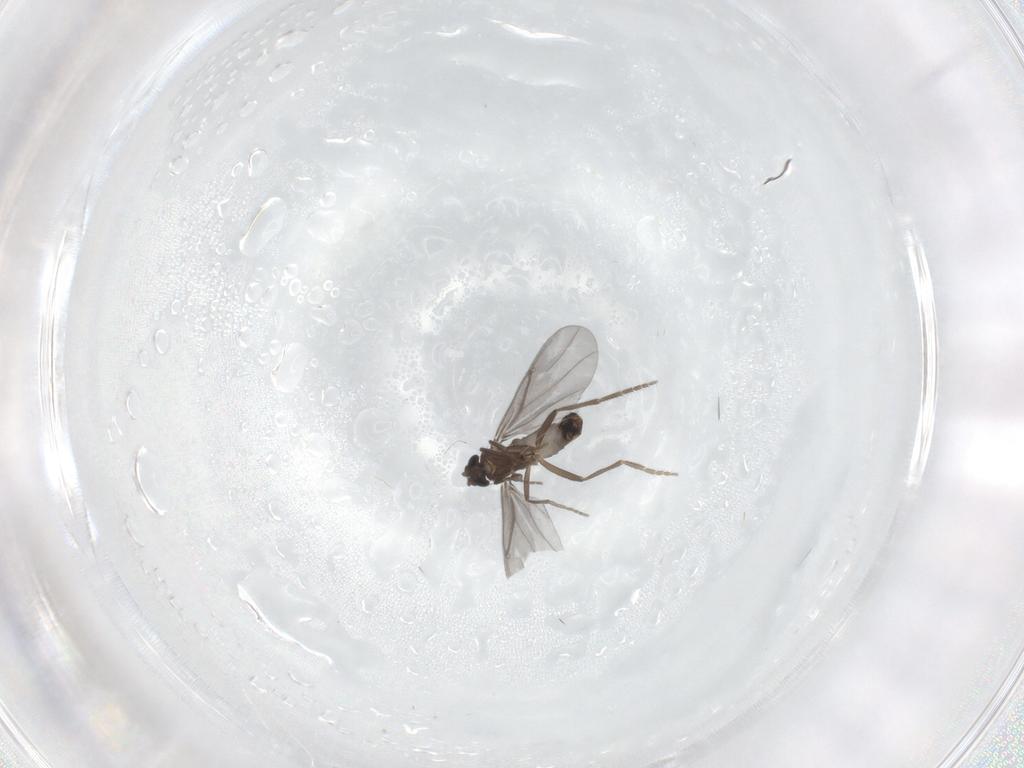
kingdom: Animalia
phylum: Arthropoda
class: Insecta
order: Diptera
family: Phoridae
